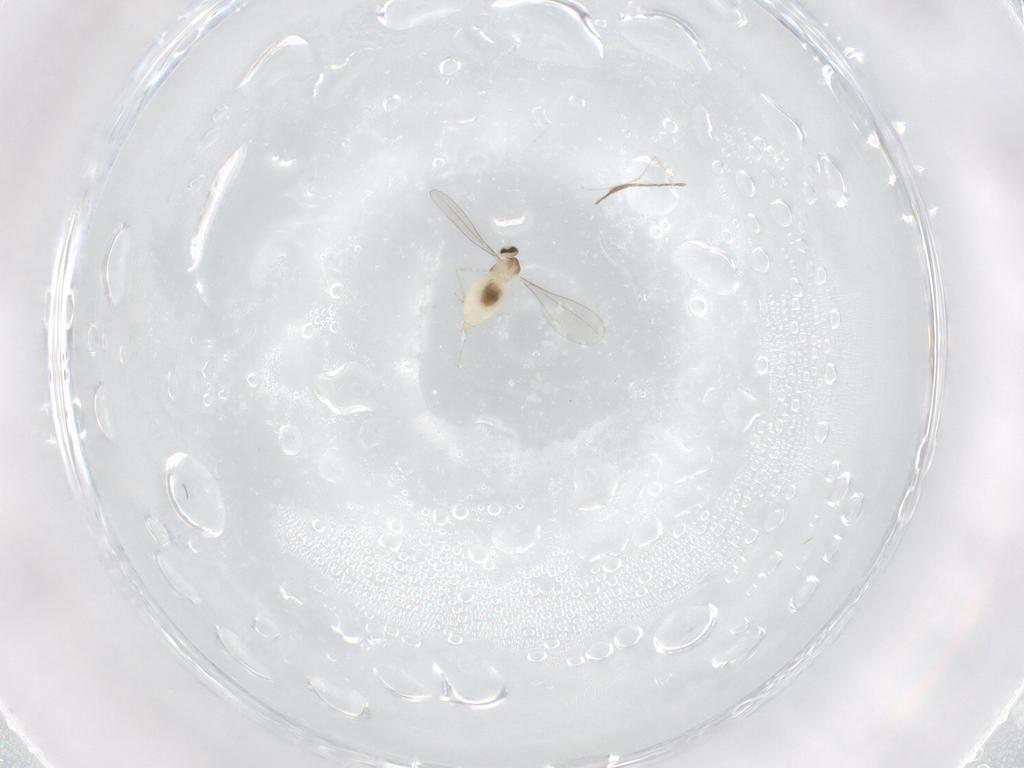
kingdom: Animalia
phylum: Arthropoda
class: Insecta
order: Diptera
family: Cecidomyiidae
